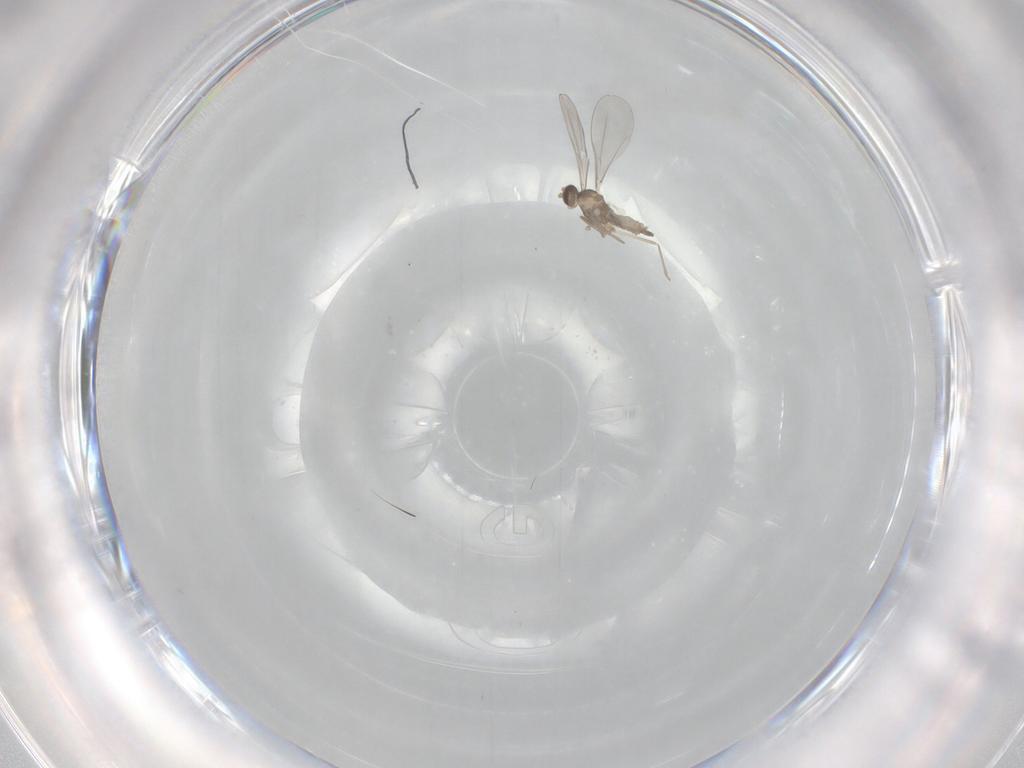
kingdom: Animalia
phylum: Arthropoda
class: Insecta
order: Diptera
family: Cecidomyiidae
